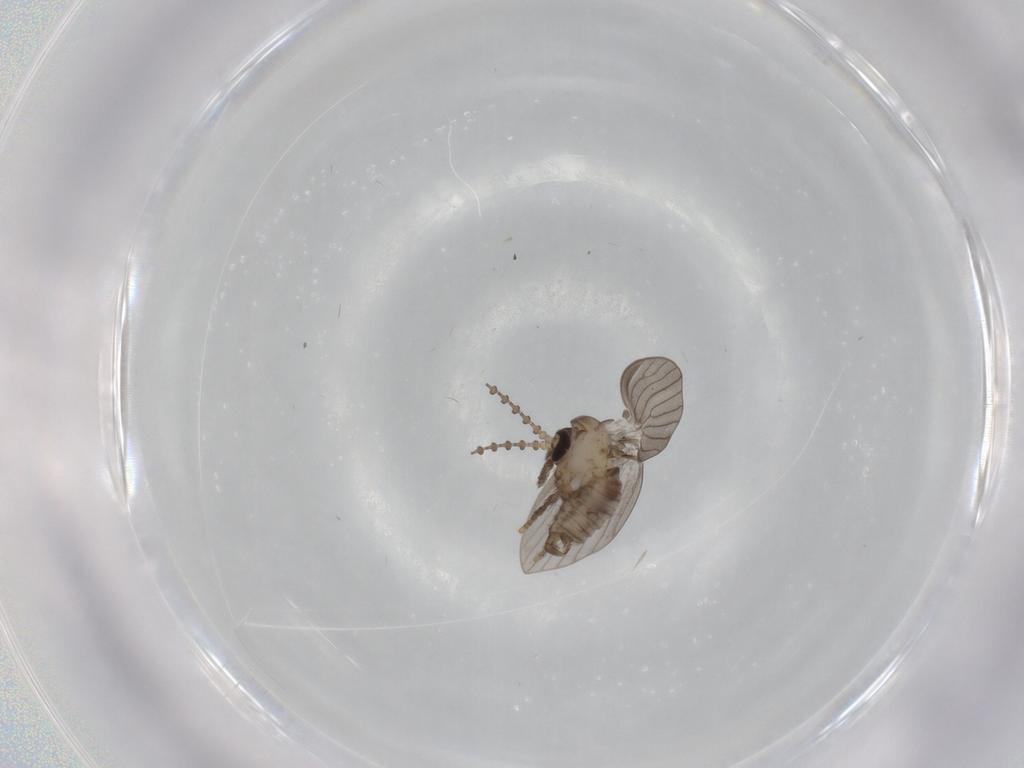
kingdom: Animalia
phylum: Arthropoda
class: Insecta
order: Diptera
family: Psychodidae
